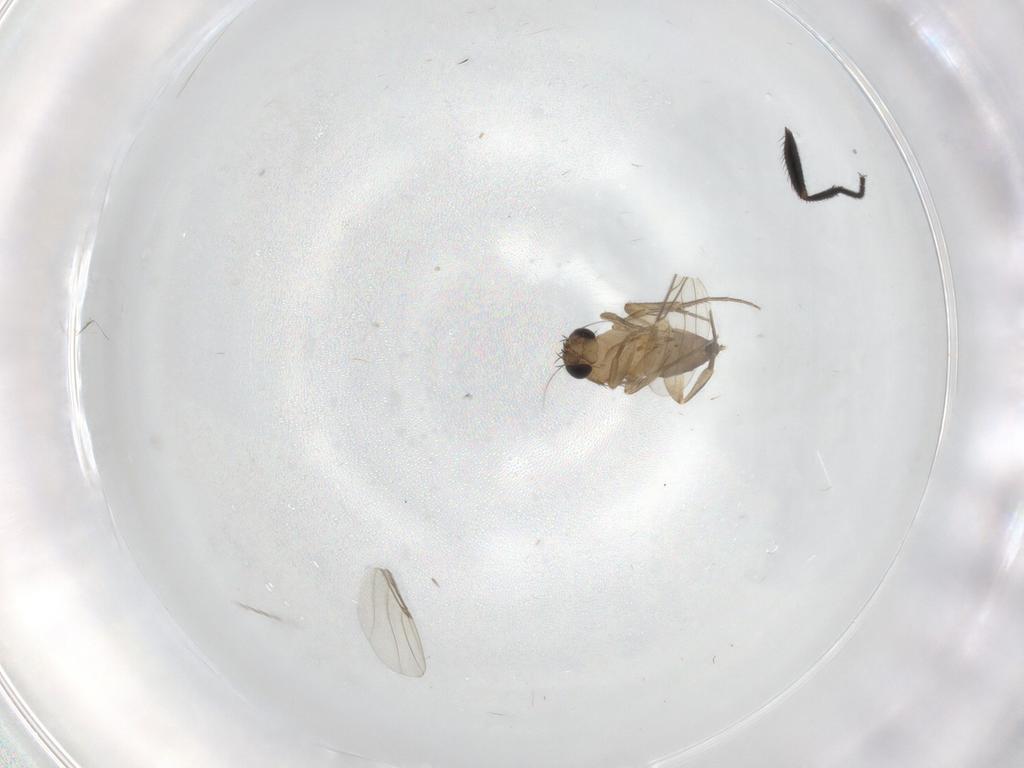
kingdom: Animalia
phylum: Arthropoda
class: Insecta
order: Diptera
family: Phoridae
